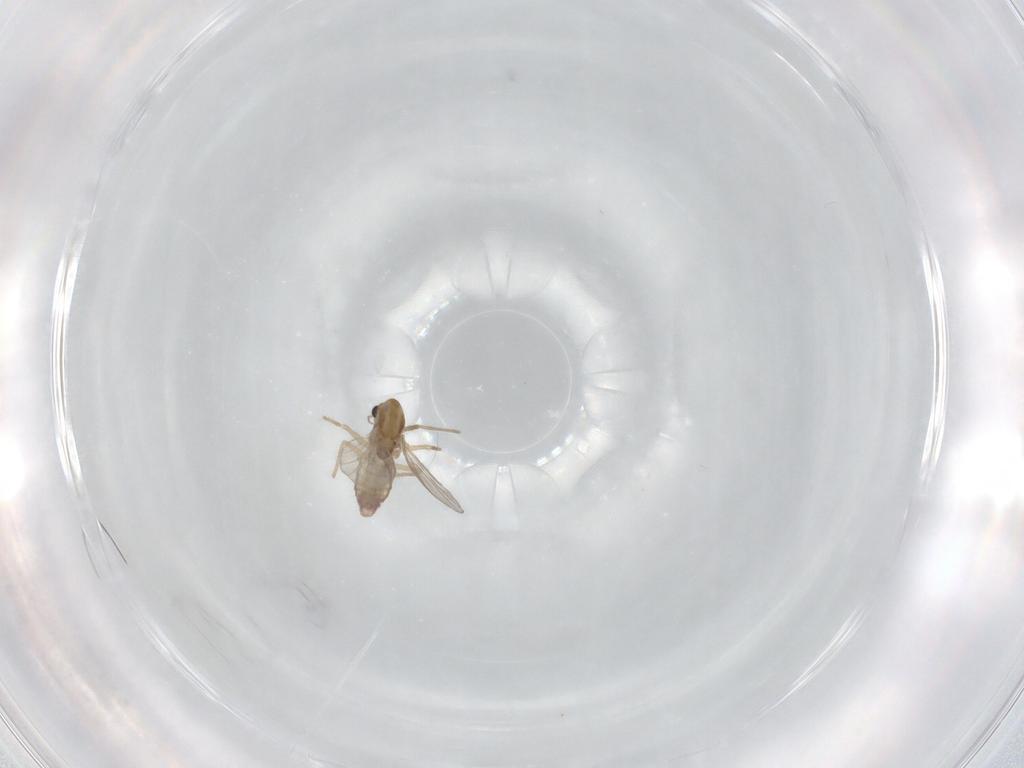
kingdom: Animalia
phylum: Arthropoda
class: Insecta
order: Diptera
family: Chironomidae
